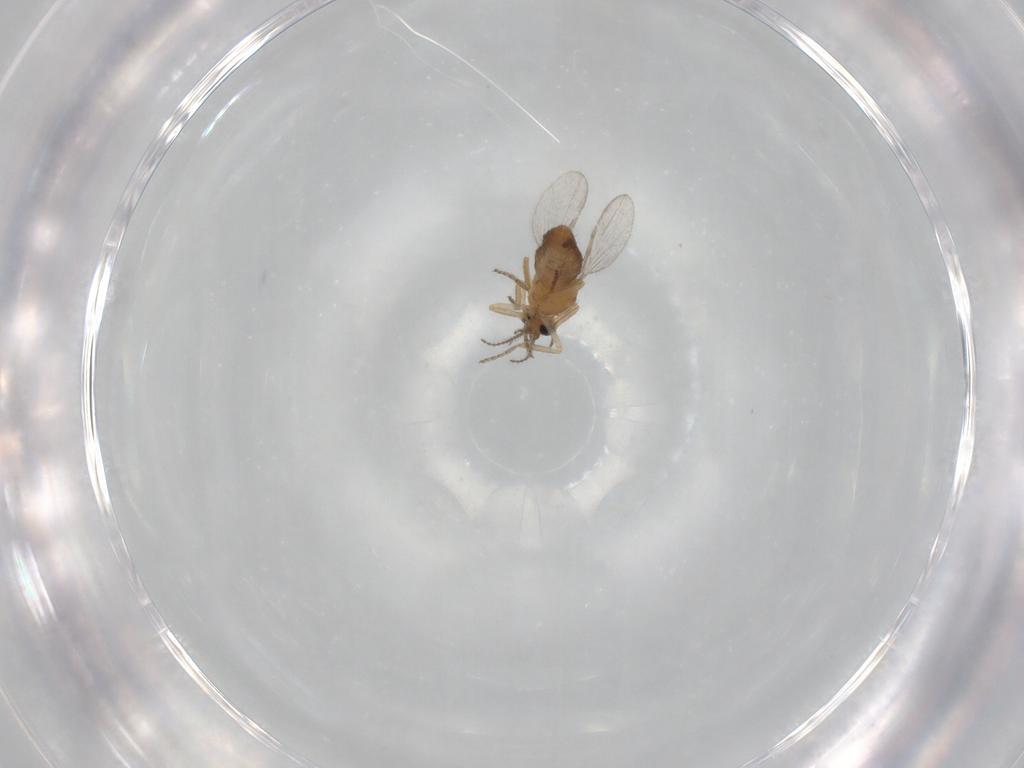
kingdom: Animalia
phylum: Arthropoda
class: Insecta
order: Diptera
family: Ceratopogonidae
